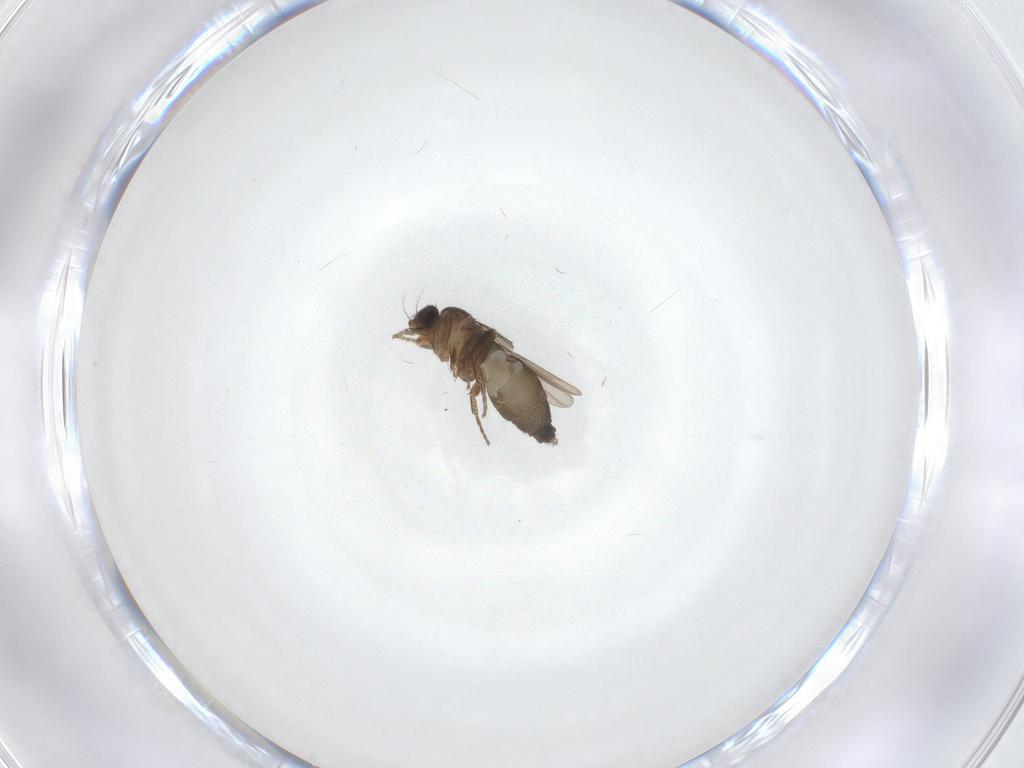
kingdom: Animalia
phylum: Arthropoda
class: Insecta
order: Diptera
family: Phoridae
